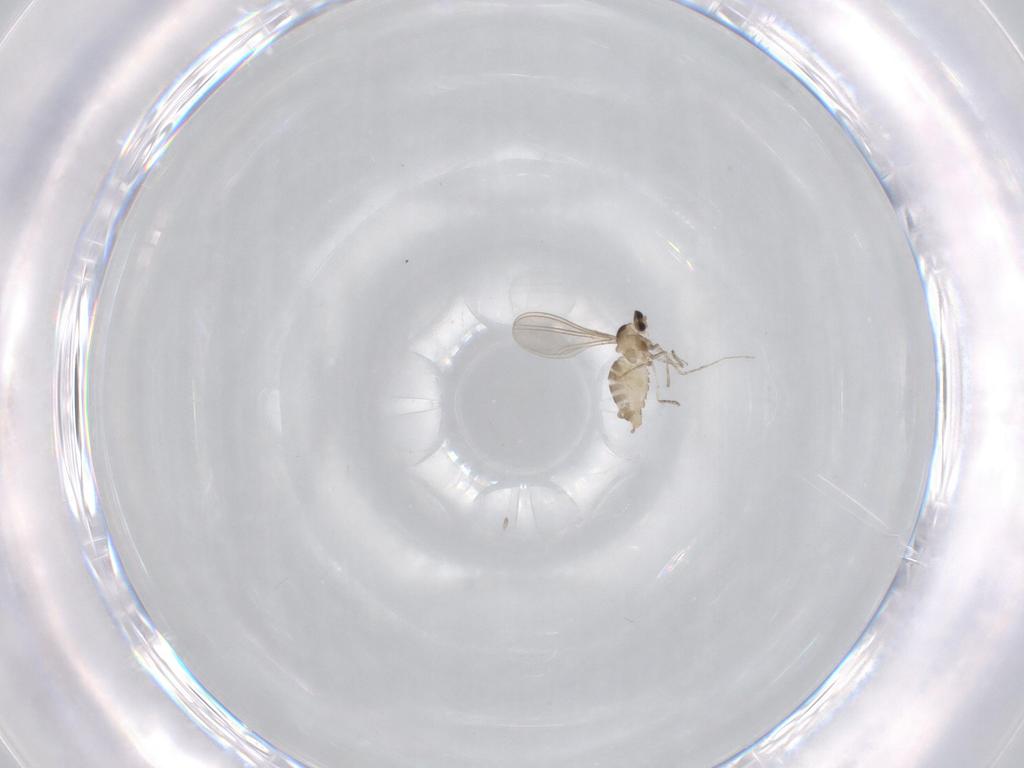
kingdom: Animalia
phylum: Arthropoda
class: Insecta
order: Diptera
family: Cecidomyiidae
